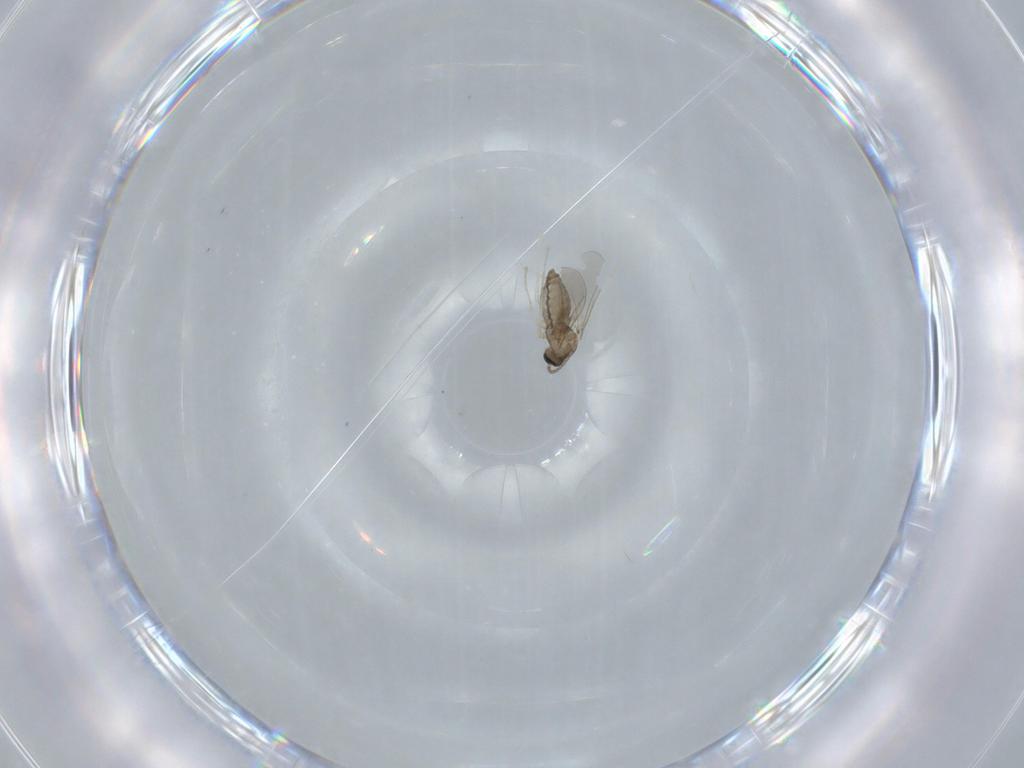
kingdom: Animalia
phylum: Arthropoda
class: Insecta
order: Diptera
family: Cecidomyiidae
